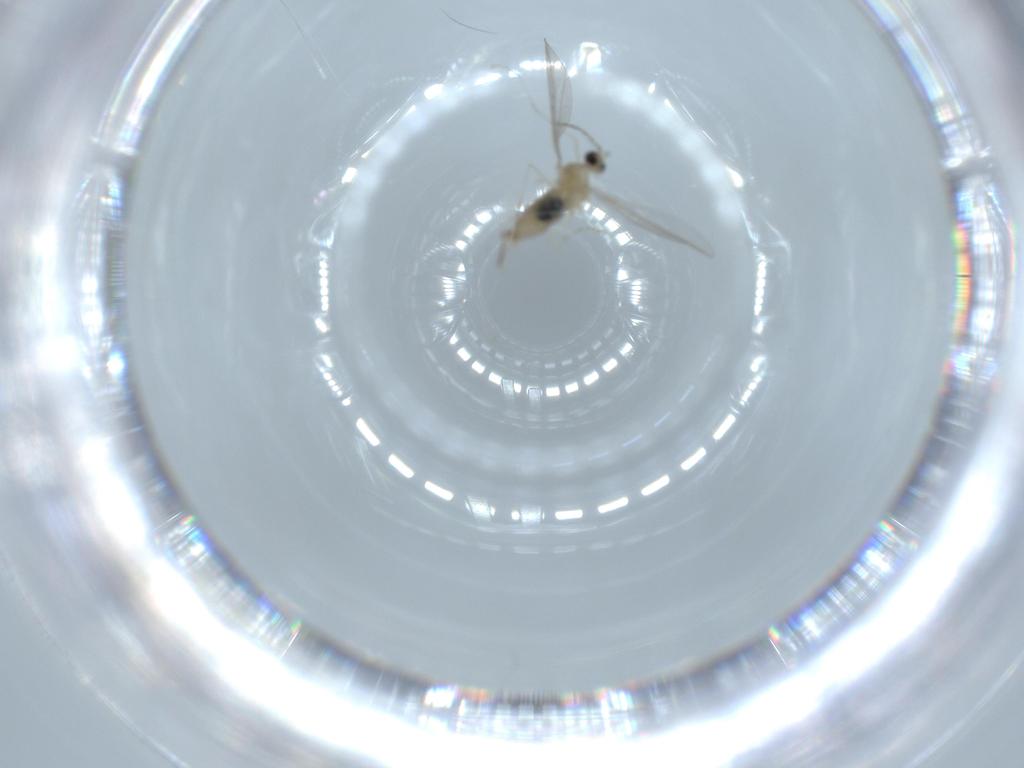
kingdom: Animalia
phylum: Arthropoda
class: Insecta
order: Diptera
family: Cecidomyiidae
